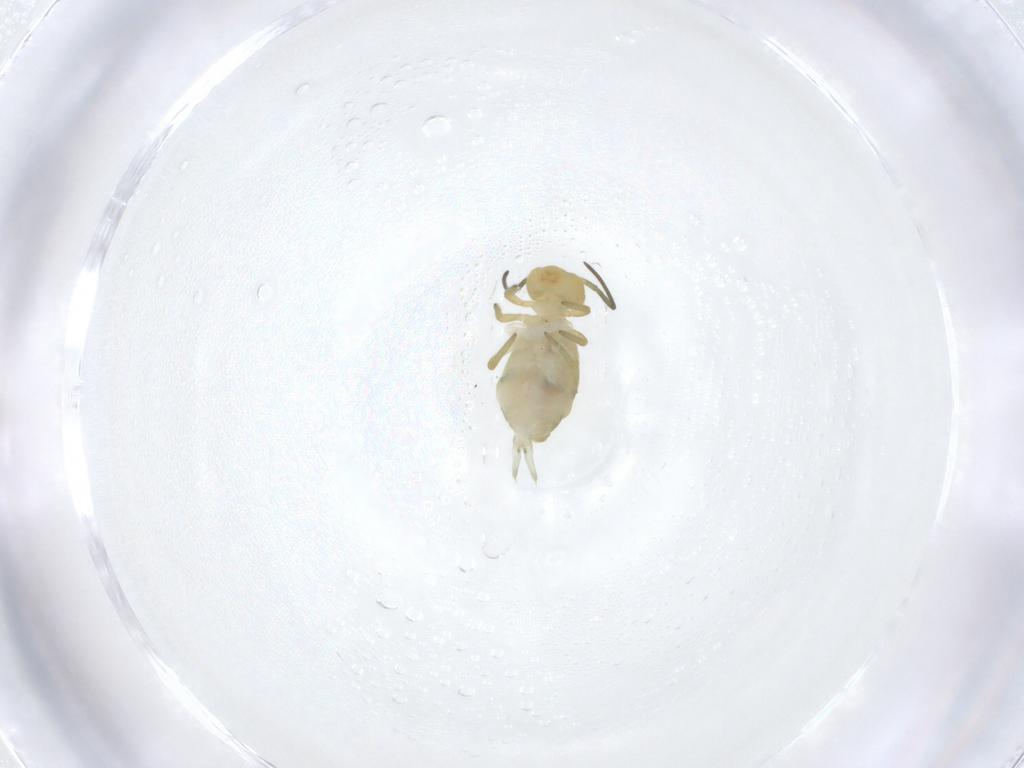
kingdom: Animalia
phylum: Arthropoda
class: Collembola
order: Symphypleona
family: Sminthuridae
